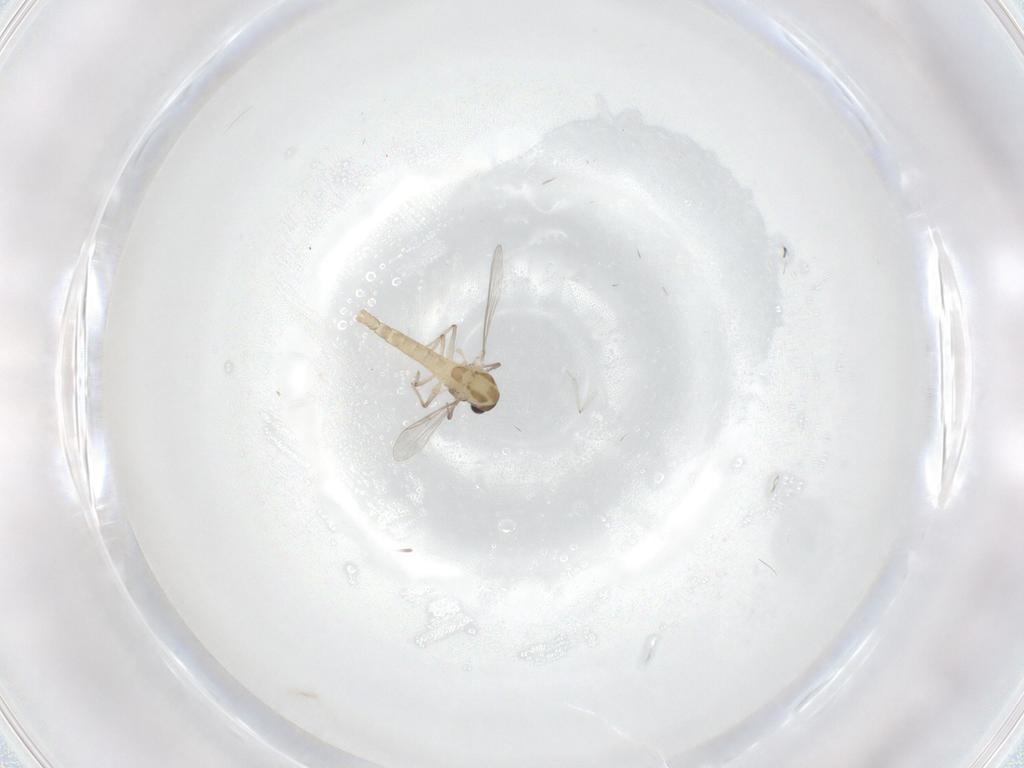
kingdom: Animalia
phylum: Arthropoda
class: Insecta
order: Diptera
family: Chironomidae
